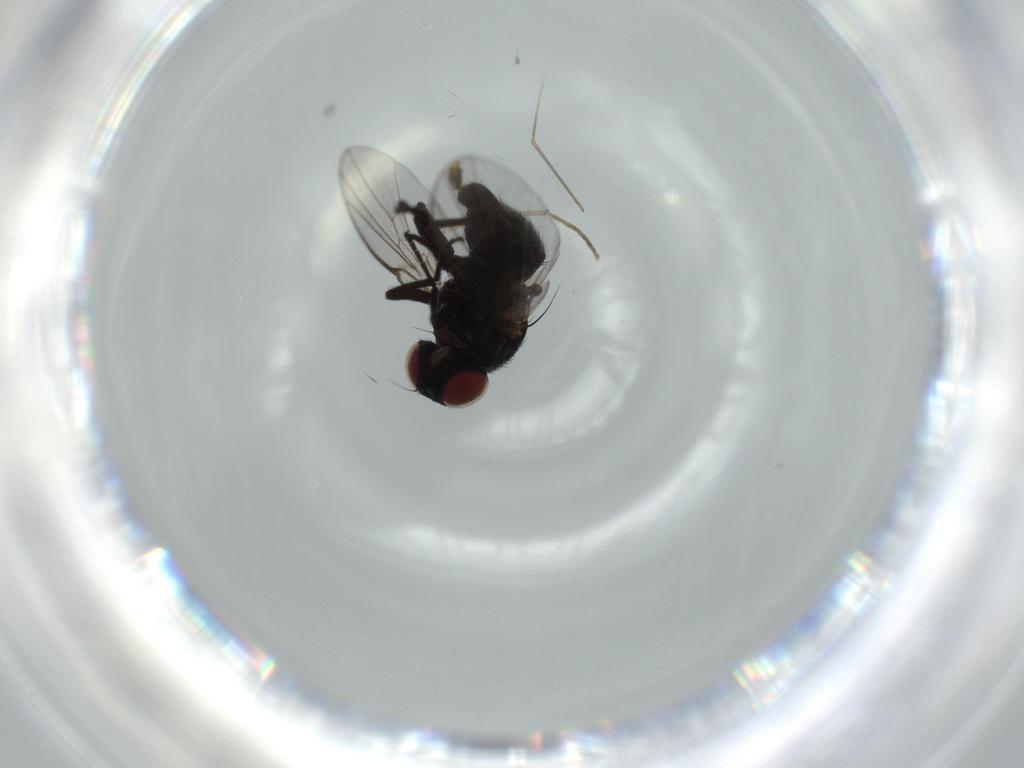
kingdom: Animalia
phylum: Arthropoda
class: Insecta
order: Diptera
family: Agromyzidae
